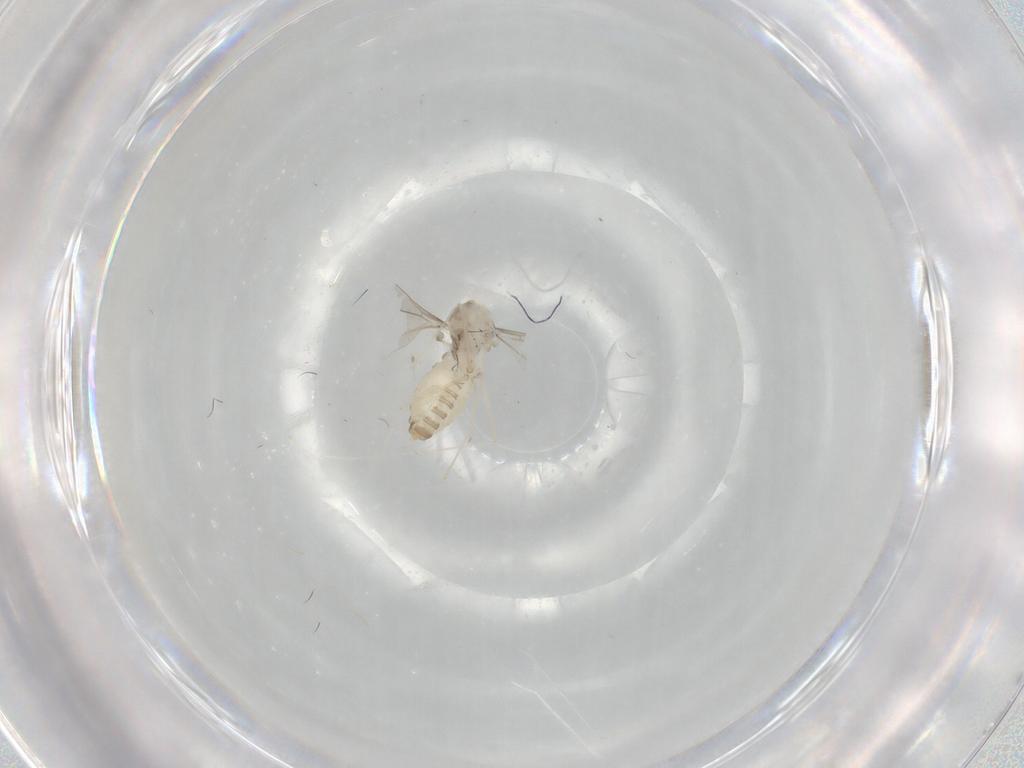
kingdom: Animalia
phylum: Arthropoda
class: Insecta
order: Diptera
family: Cecidomyiidae
